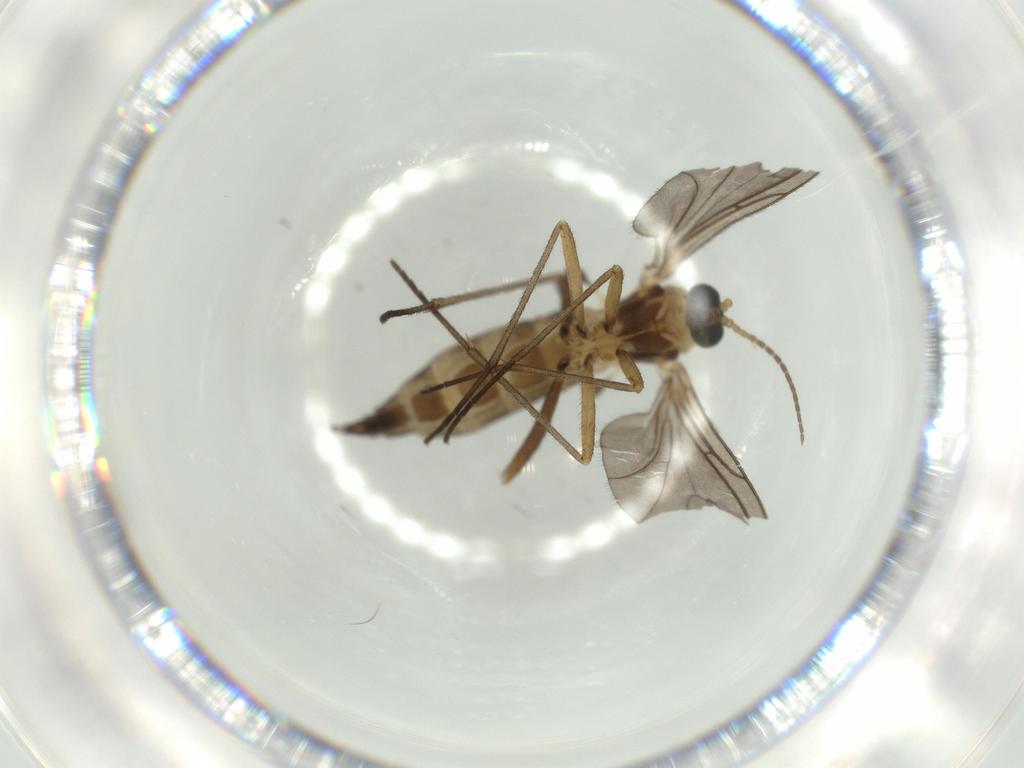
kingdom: Animalia
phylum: Arthropoda
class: Insecta
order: Diptera
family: Sciaridae
